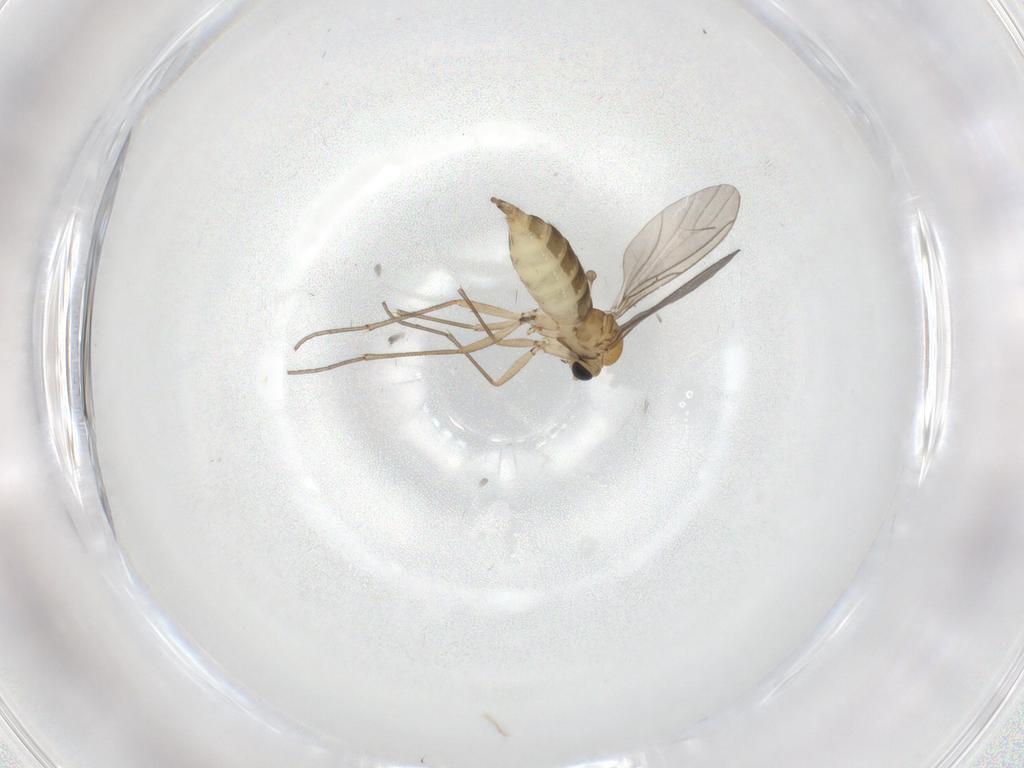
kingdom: Animalia
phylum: Arthropoda
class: Insecta
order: Diptera
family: Sciaridae
